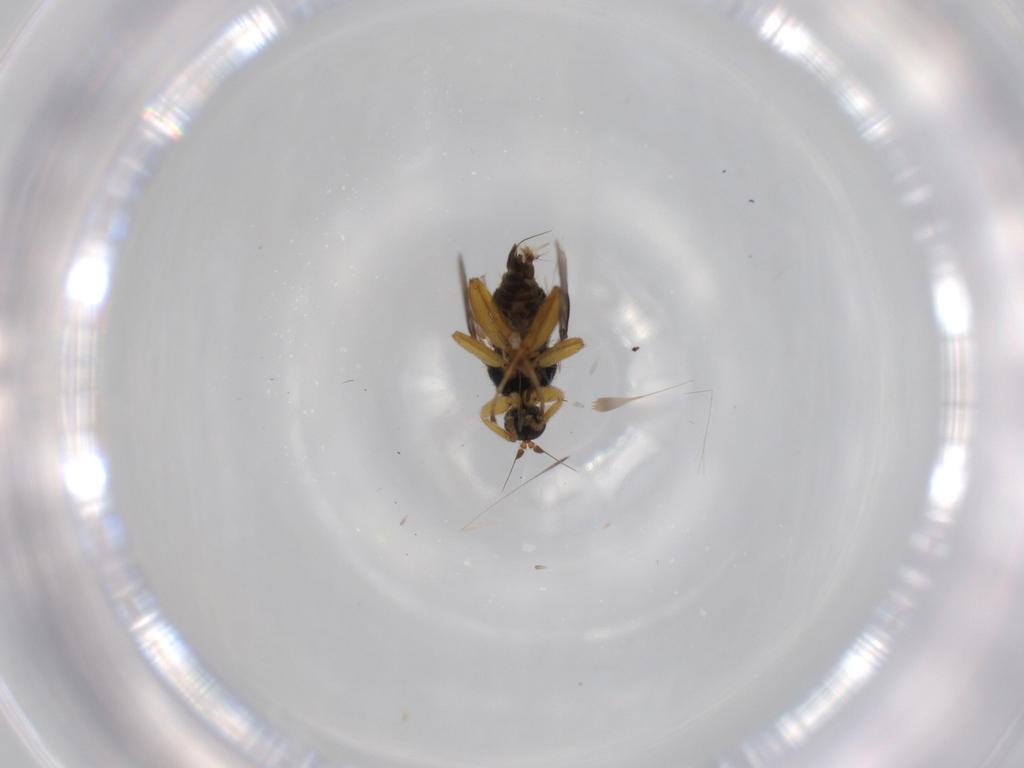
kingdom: Animalia
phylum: Arthropoda
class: Insecta
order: Diptera
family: Hybotidae
